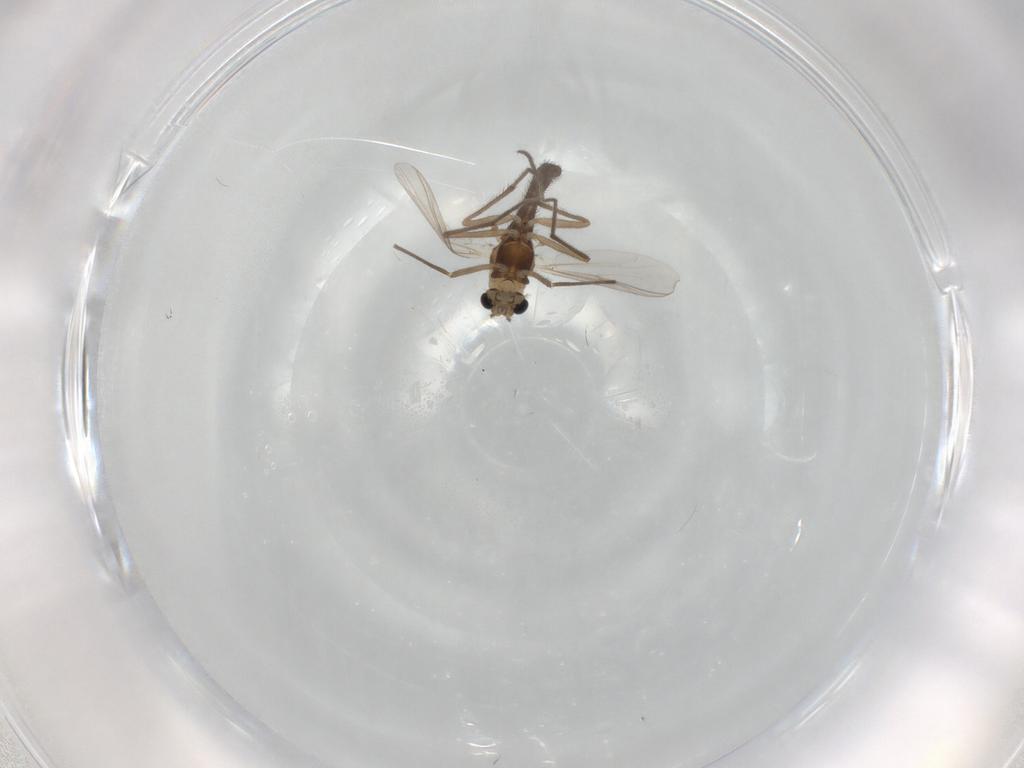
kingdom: Animalia
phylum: Arthropoda
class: Insecta
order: Diptera
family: Chironomidae
